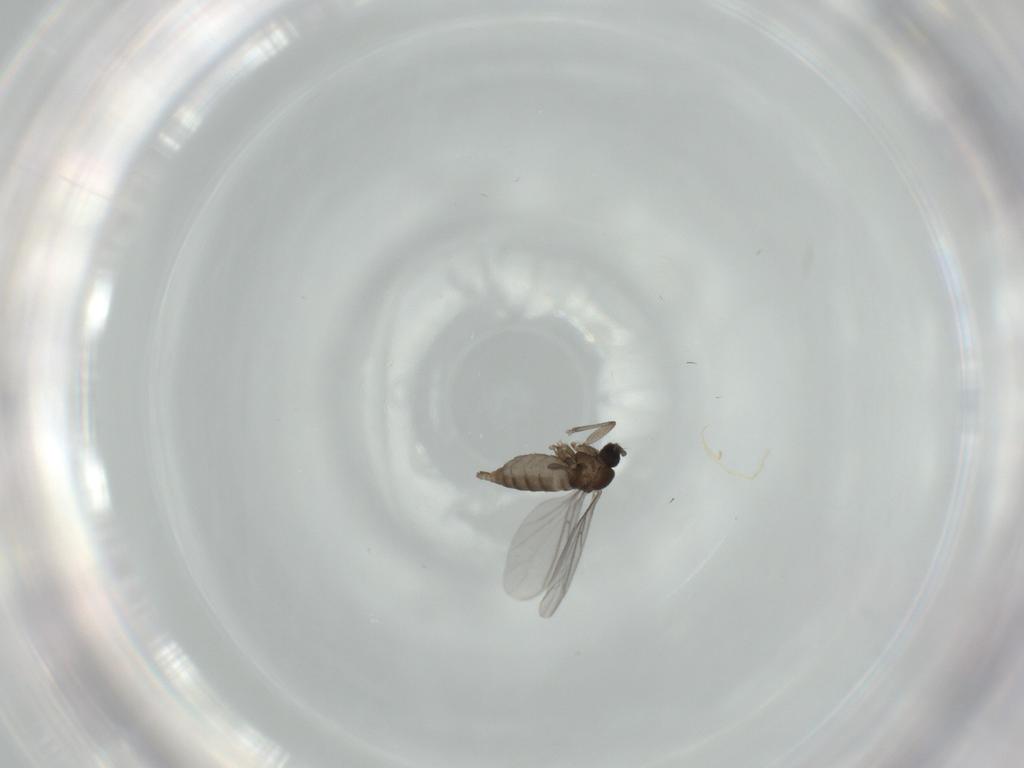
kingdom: Animalia
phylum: Arthropoda
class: Insecta
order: Diptera
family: Sciaridae
